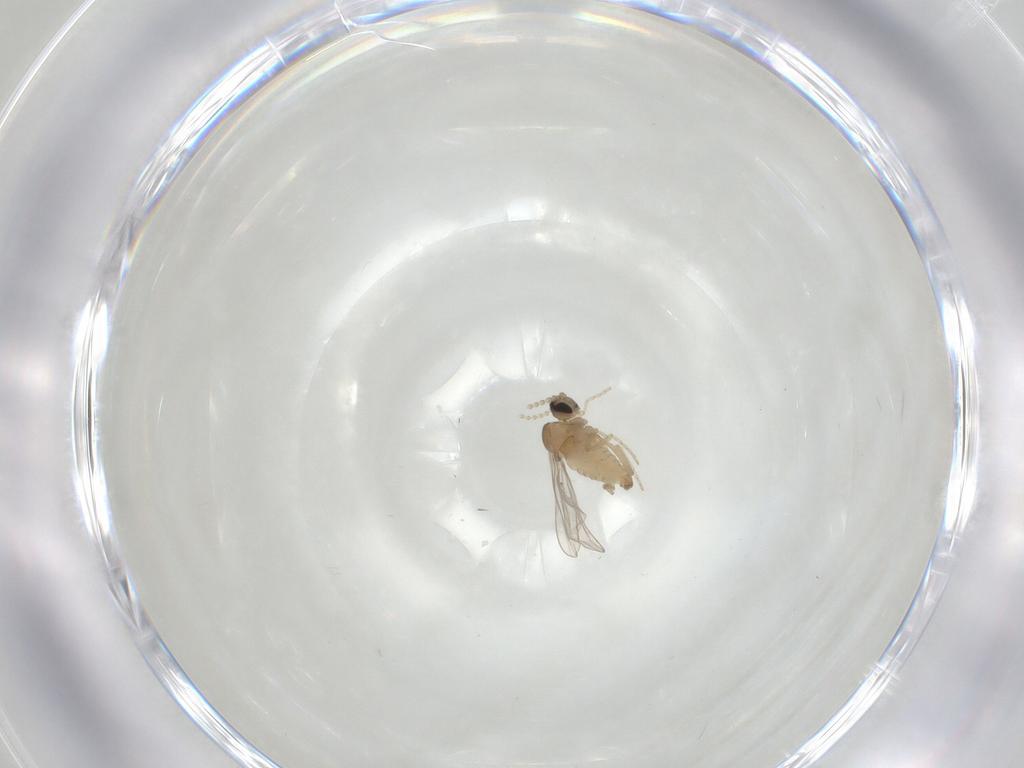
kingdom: Animalia
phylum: Arthropoda
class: Insecta
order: Diptera
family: Cecidomyiidae
